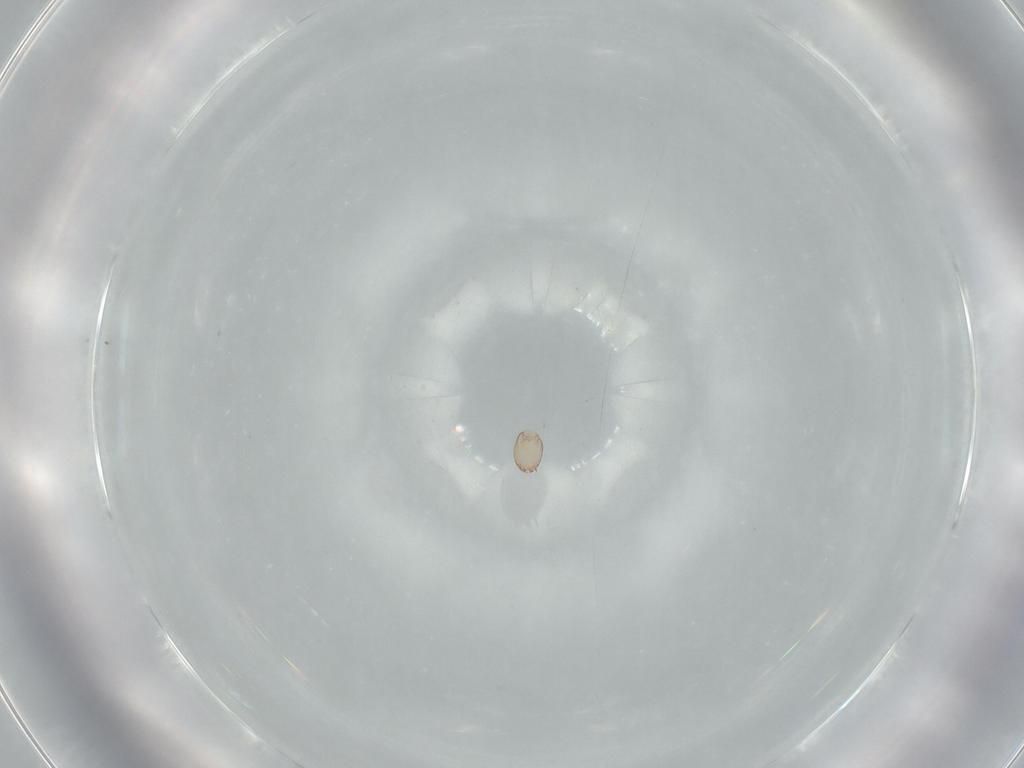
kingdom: Animalia
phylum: Arthropoda
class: Arachnida
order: Sarcoptiformes
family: Acaridae
